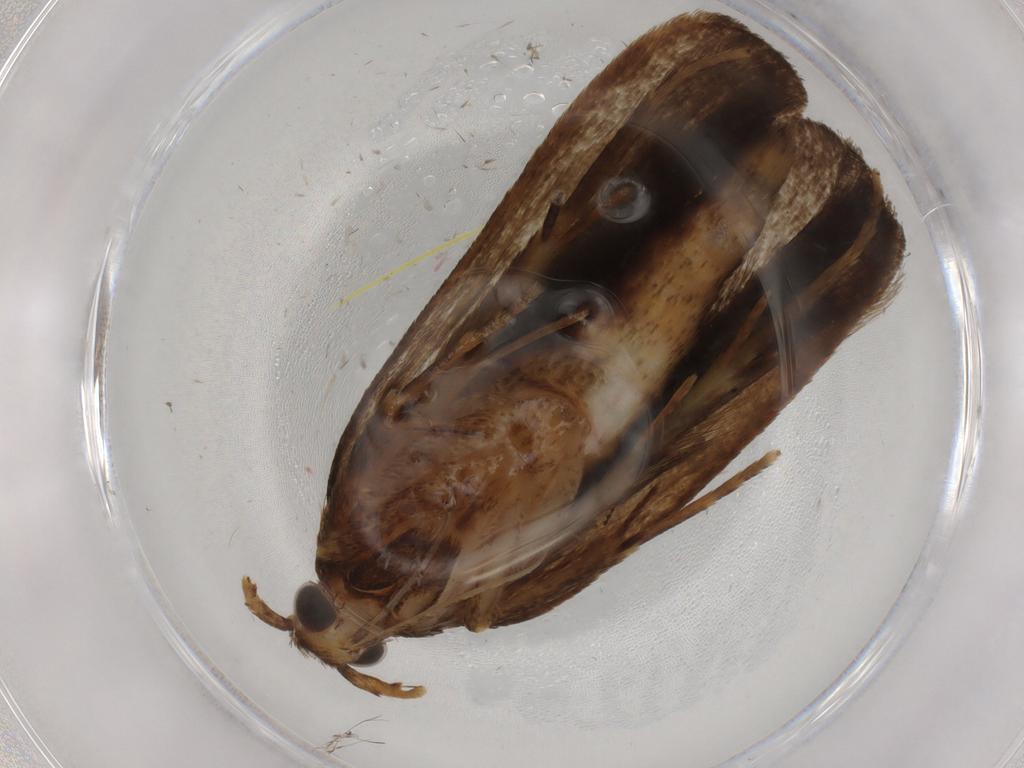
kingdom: Animalia
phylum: Arthropoda
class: Insecta
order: Lepidoptera
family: Autostichidae
